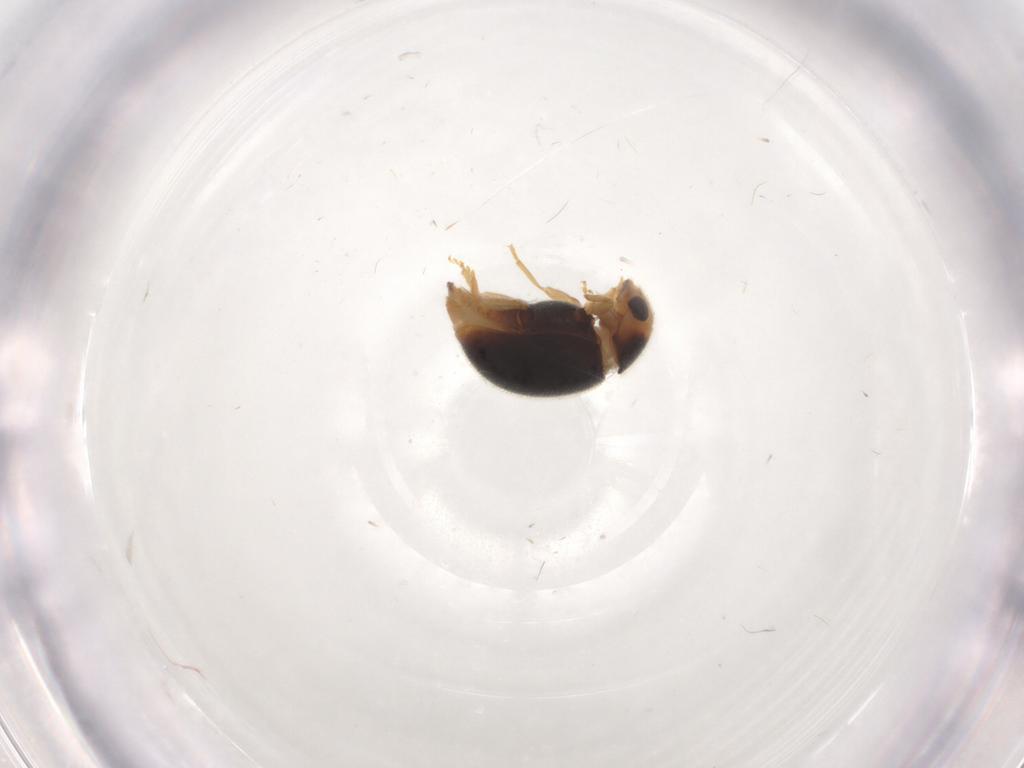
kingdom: Animalia
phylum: Arthropoda
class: Insecta
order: Coleoptera
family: Coccinellidae
